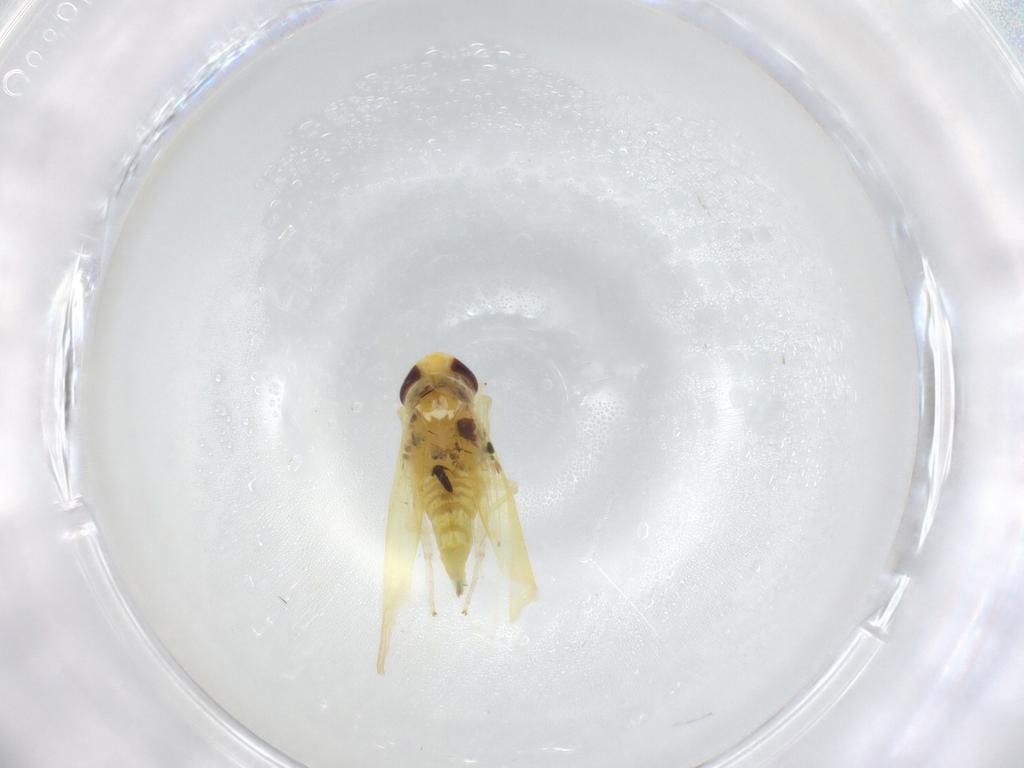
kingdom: Animalia
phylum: Arthropoda
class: Insecta
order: Hemiptera
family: Cicadellidae
